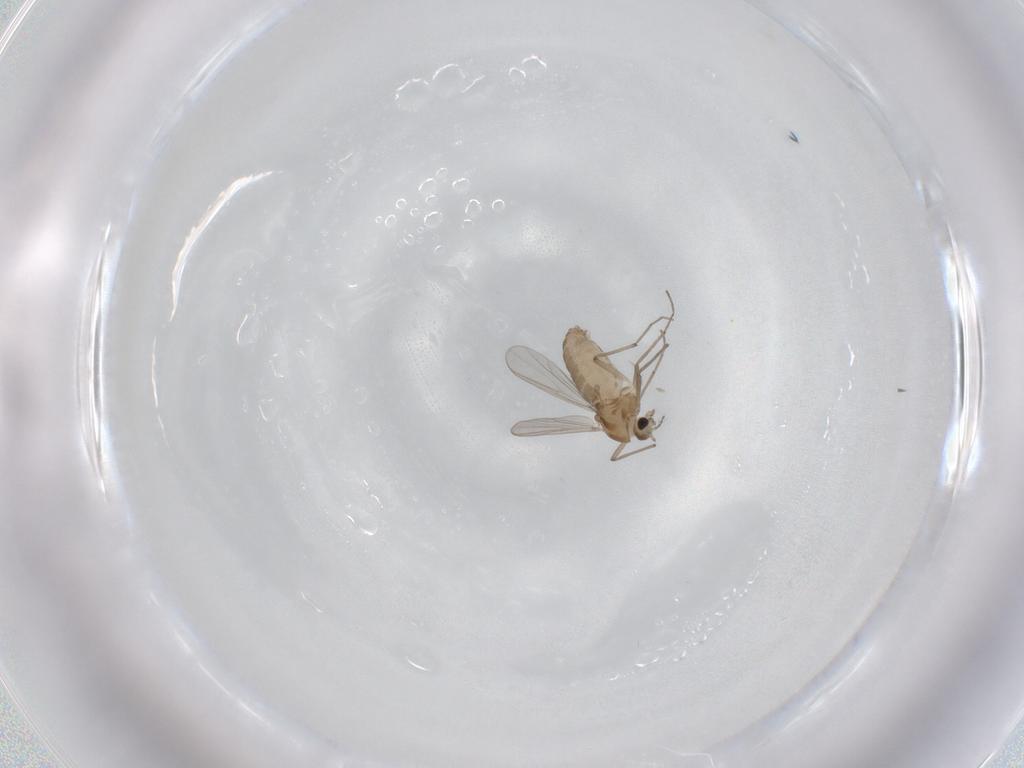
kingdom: Animalia
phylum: Arthropoda
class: Insecta
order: Diptera
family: Chironomidae
